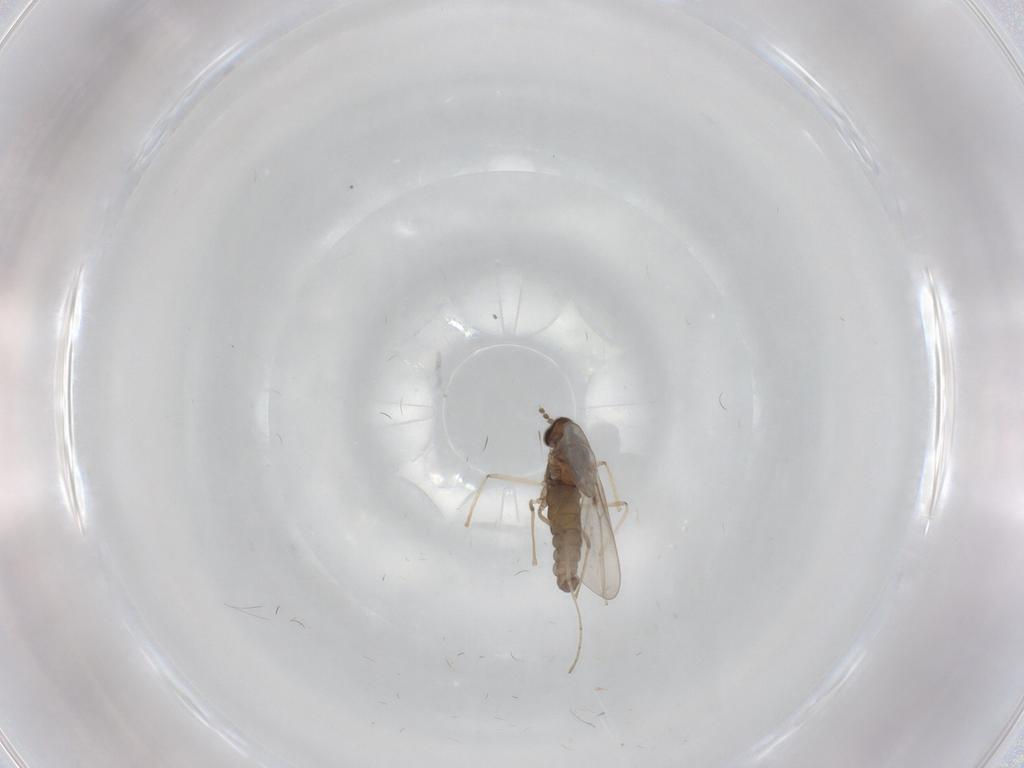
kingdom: Animalia
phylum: Arthropoda
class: Insecta
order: Diptera
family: Cecidomyiidae
